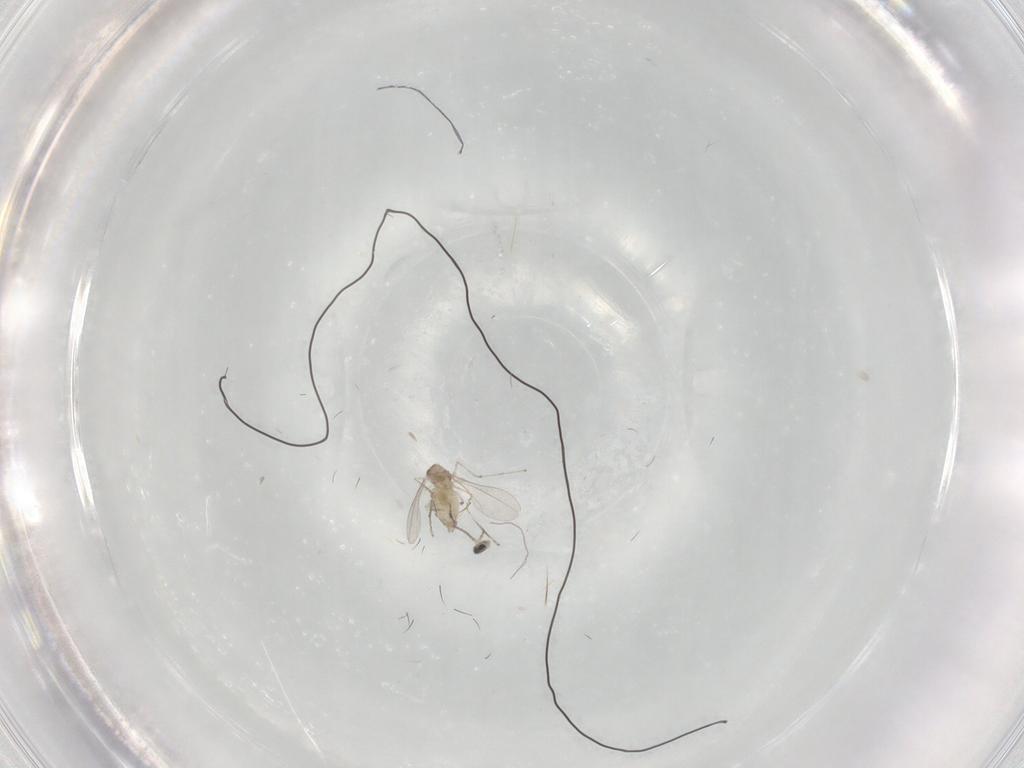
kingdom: Animalia
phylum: Arthropoda
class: Insecta
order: Diptera
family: Cecidomyiidae
